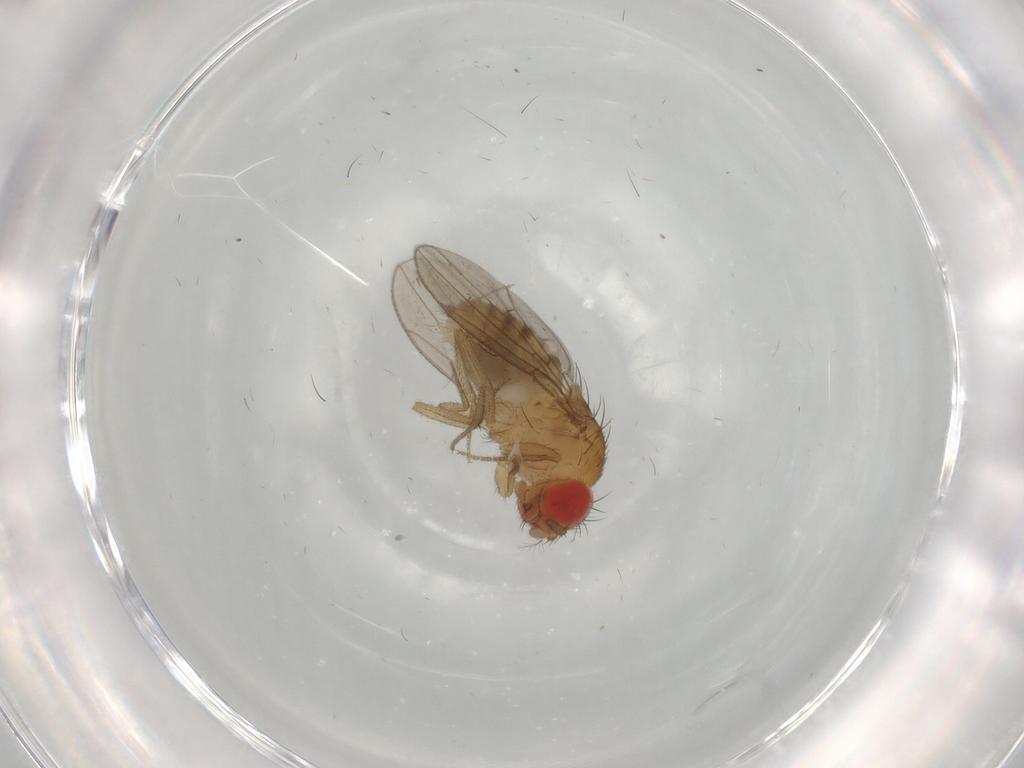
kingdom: Animalia
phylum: Arthropoda
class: Insecta
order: Diptera
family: Drosophilidae
